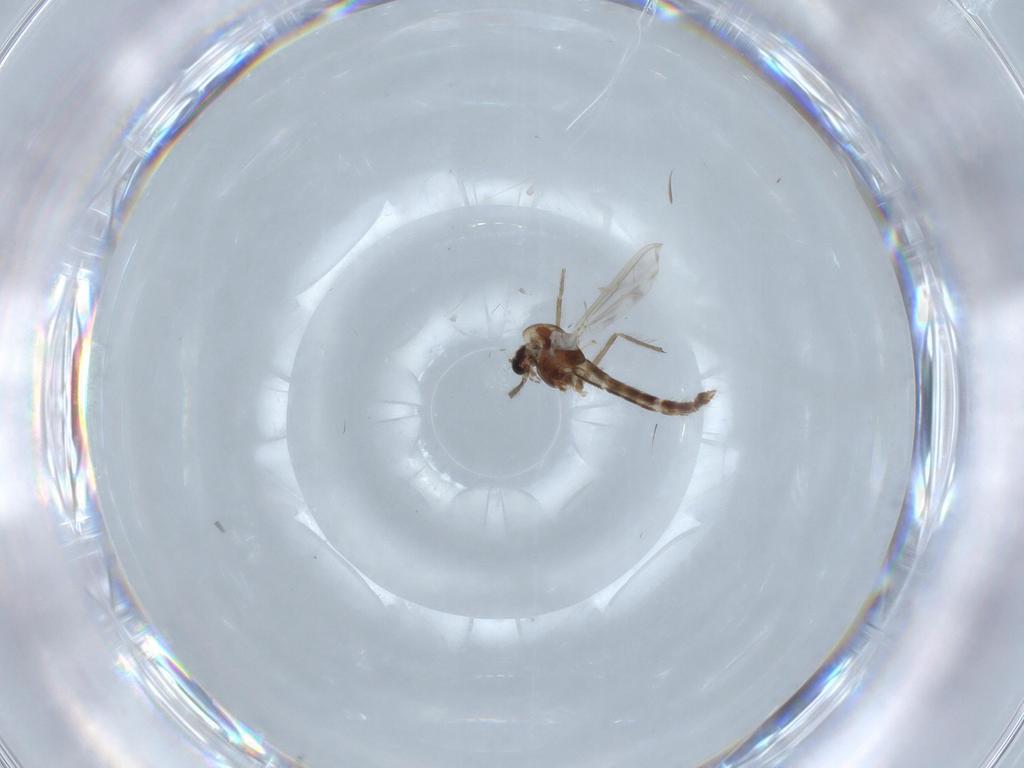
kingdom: Animalia
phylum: Arthropoda
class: Insecta
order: Diptera
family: Chironomidae
